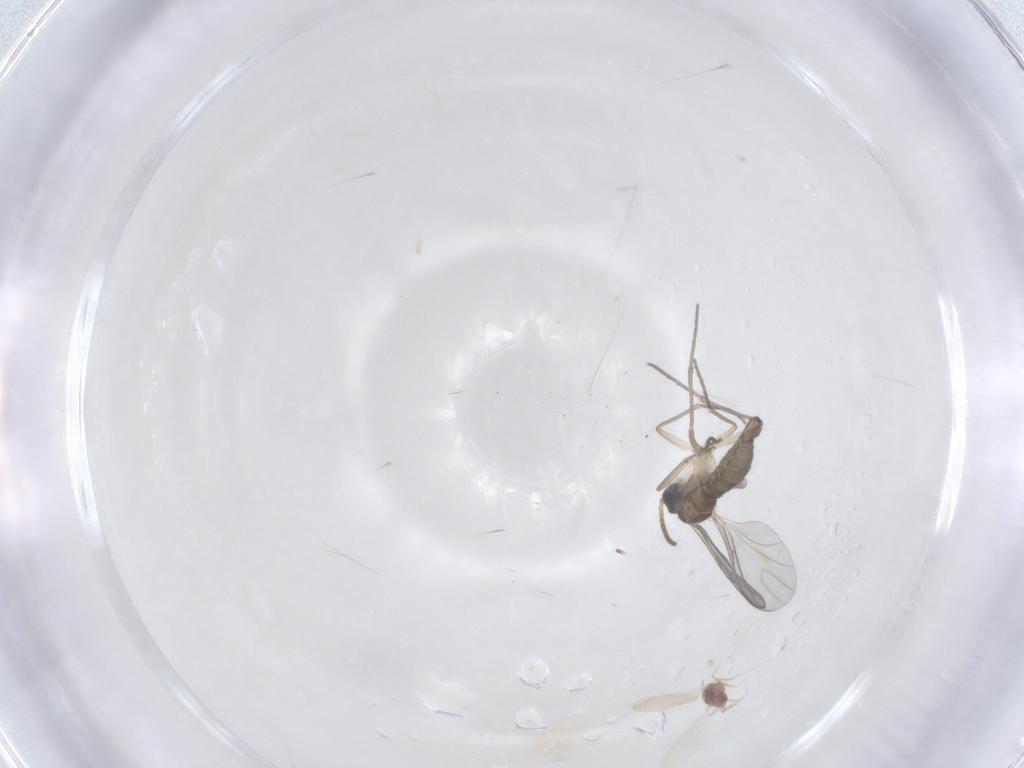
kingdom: Animalia
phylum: Arthropoda
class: Insecta
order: Diptera
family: Sciaridae
